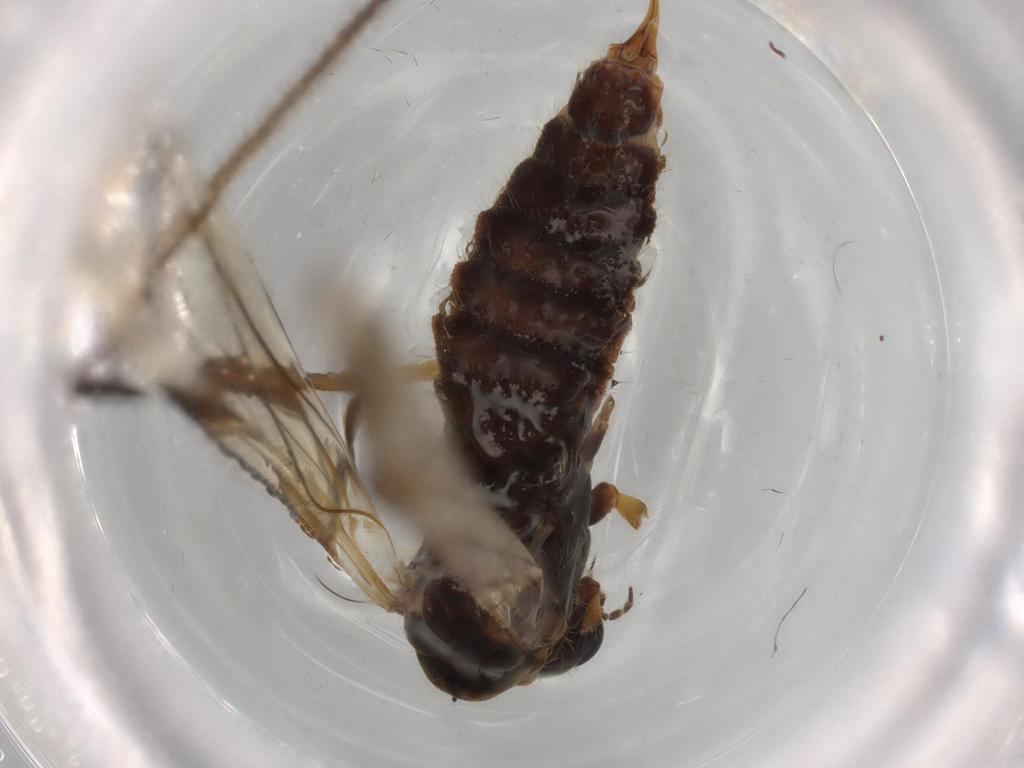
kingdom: Animalia
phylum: Arthropoda
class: Insecta
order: Diptera
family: Limoniidae
